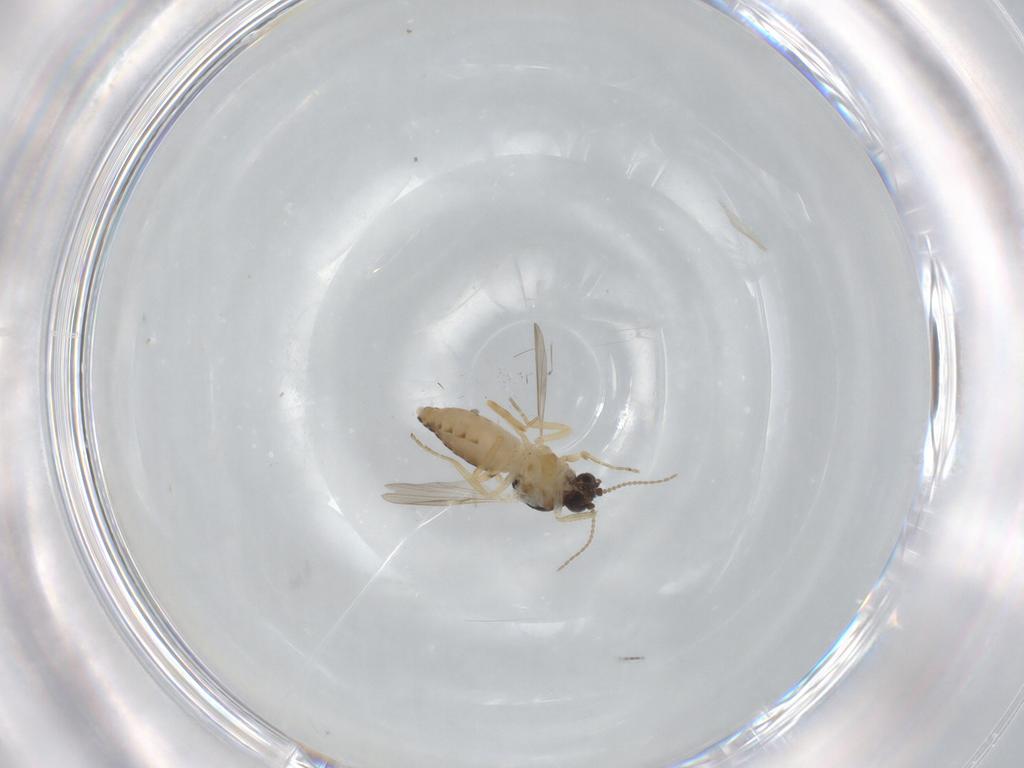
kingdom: Animalia
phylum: Arthropoda
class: Insecta
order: Diptera
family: Ceratopogonidae
